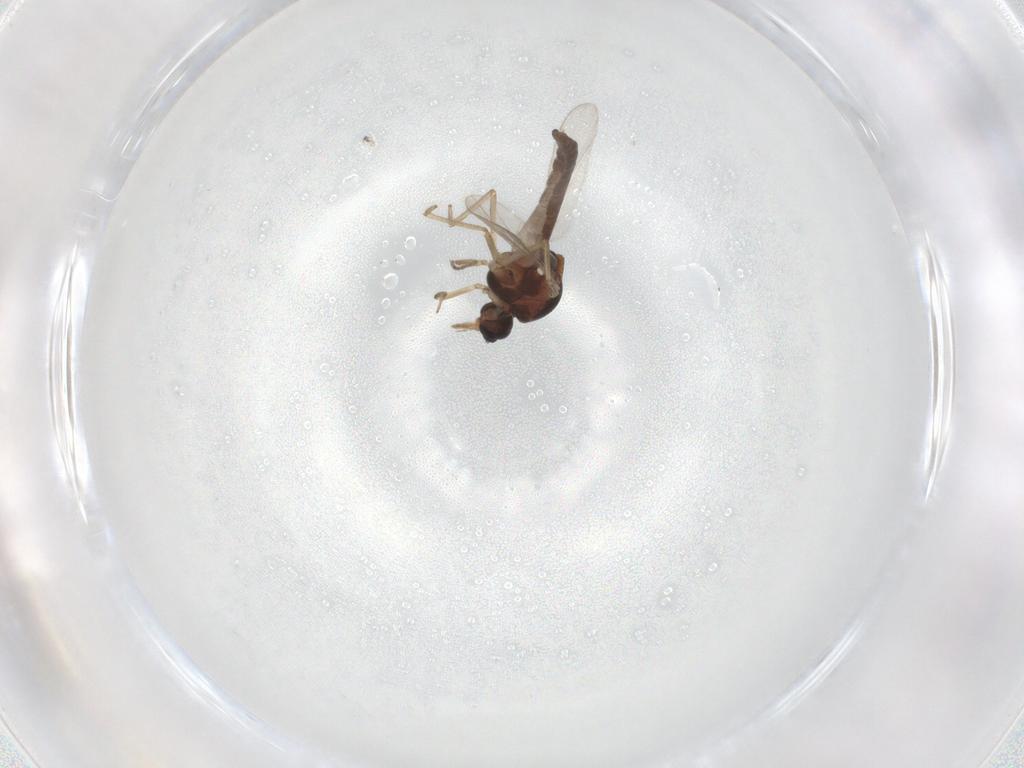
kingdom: Animalia
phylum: Arthropoda
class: Insecta
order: Diptera
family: Ceratopogonidae
